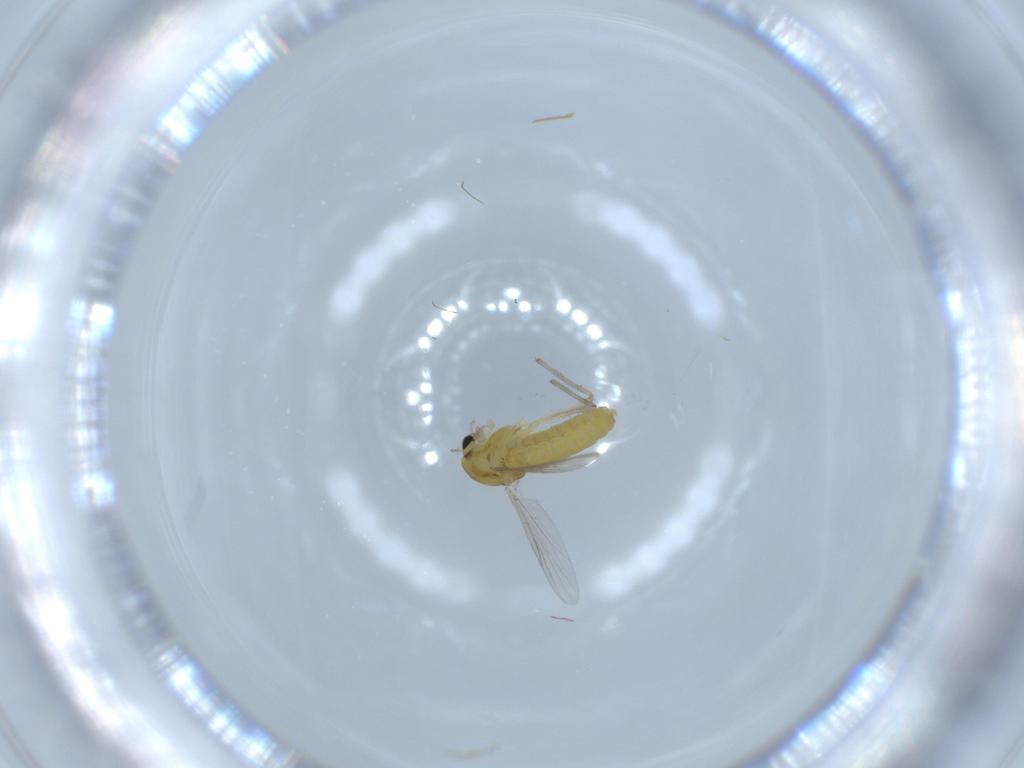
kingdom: Animalia
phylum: Arthropoda
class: Insecta
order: Diptera
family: Chironomidae
